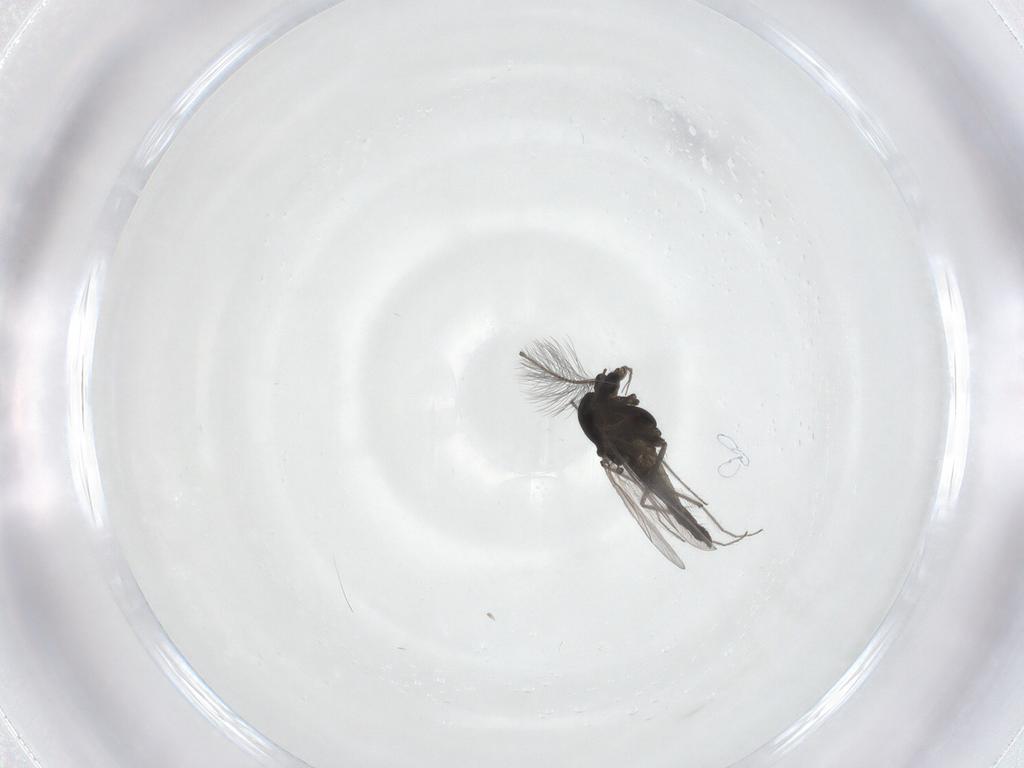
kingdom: Animalia
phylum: Arthropoda
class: Insecta
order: Diptera
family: Chironomidae
